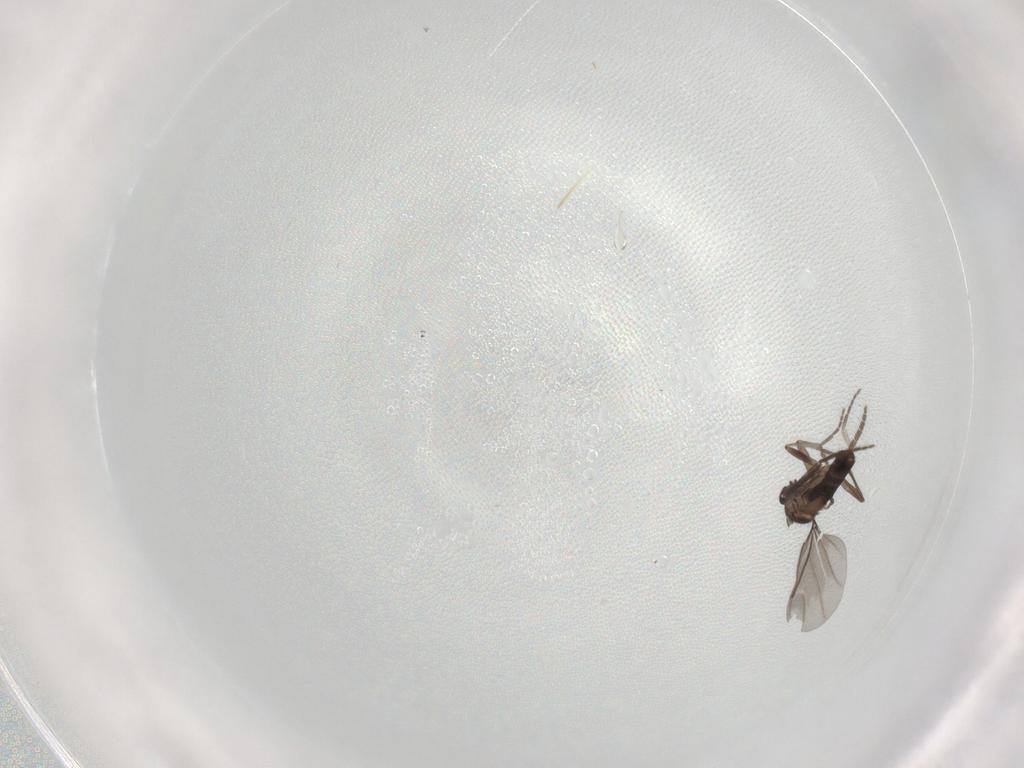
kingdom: Animalia
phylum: Arthropoda
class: Insecta
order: Diptera
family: Phoridae
